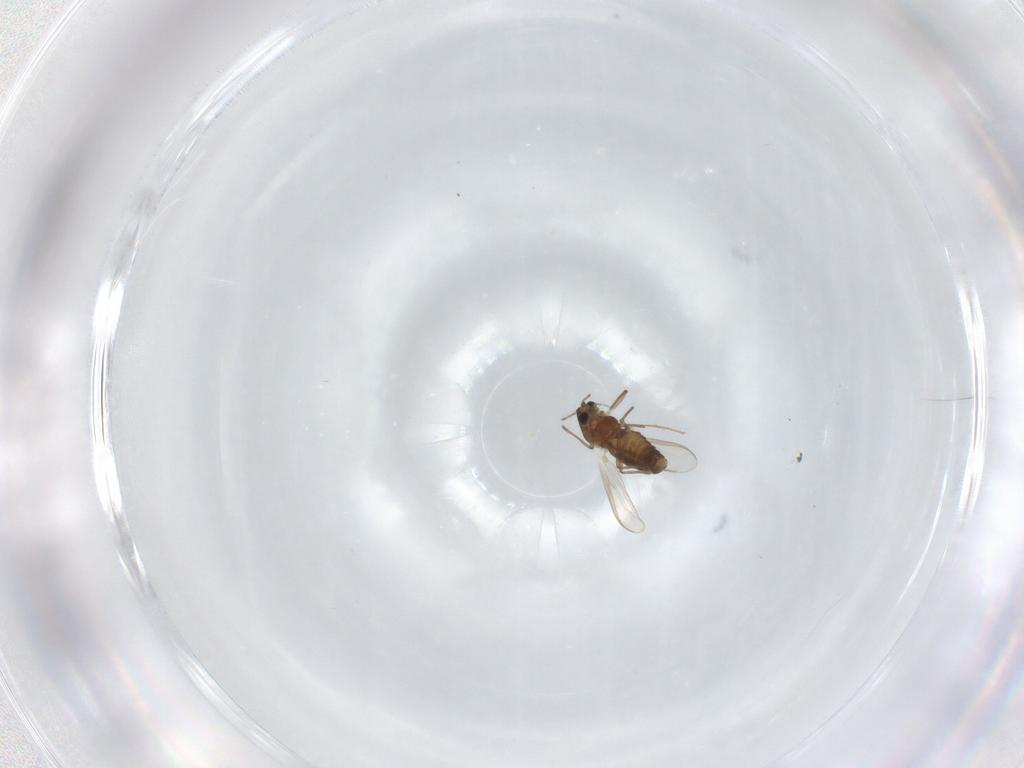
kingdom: Animalia
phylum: Arthropoda
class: Insecta
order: Diptera
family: Chironomidae
